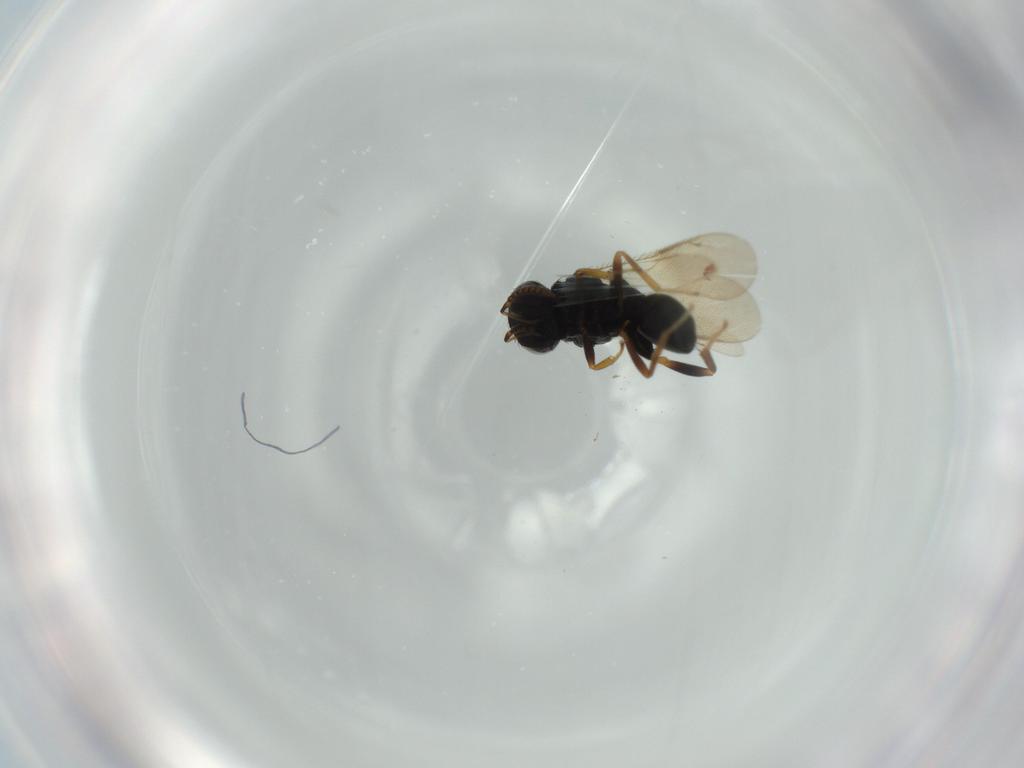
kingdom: Animalia
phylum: Arthropoda
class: Insecta
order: Hymenoptera
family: Pteromalidae
